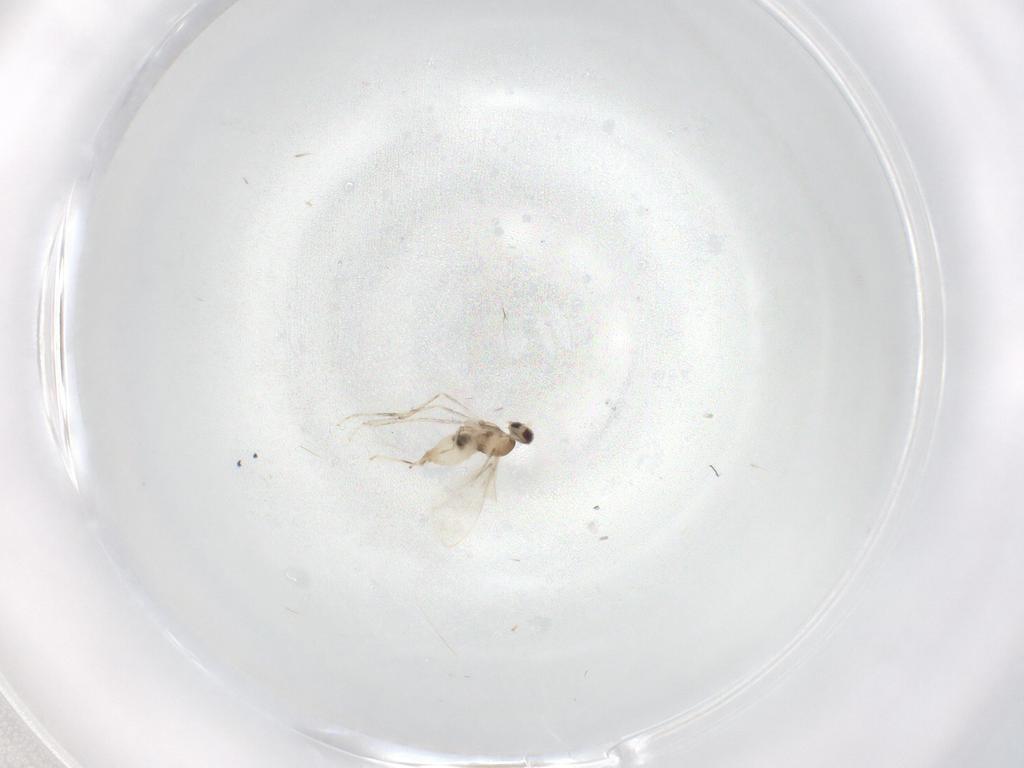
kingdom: Animalia
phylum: Arthropoda
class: Insecta
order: Diptera
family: Cecidomyiidae
